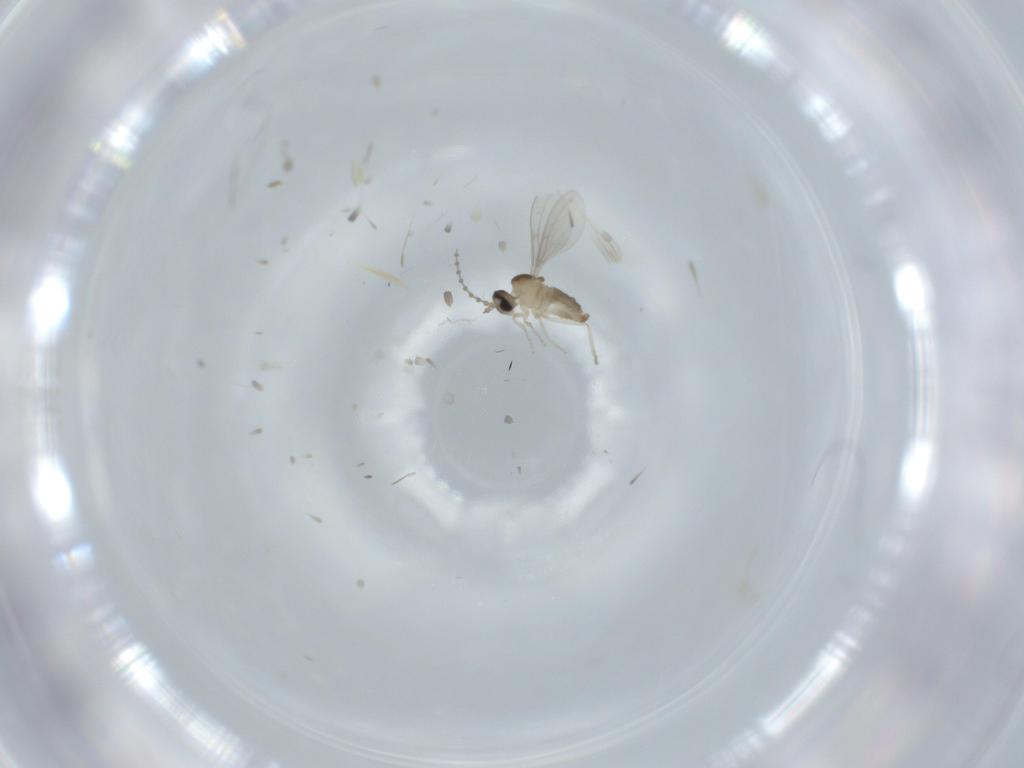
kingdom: Animalia
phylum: Arthropoda
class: Insecta
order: Diptera
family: Cecidomyiidae
